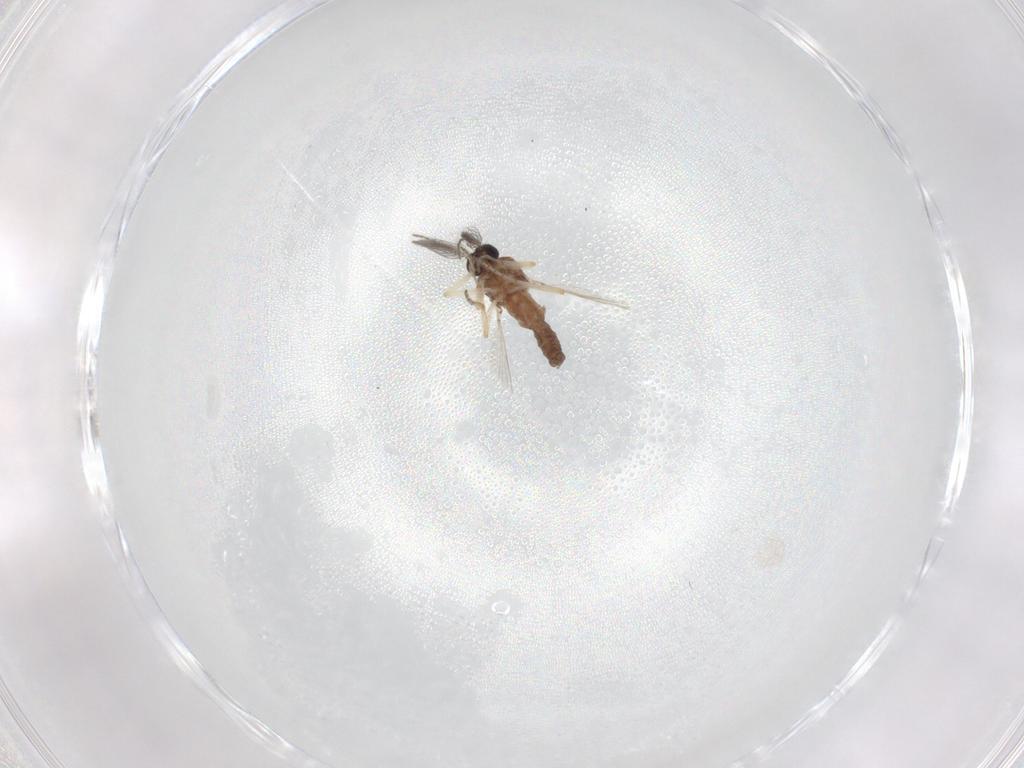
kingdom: Animalia
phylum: Arthropoda
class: Insecta
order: Diptera
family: Ceratopogonidae
